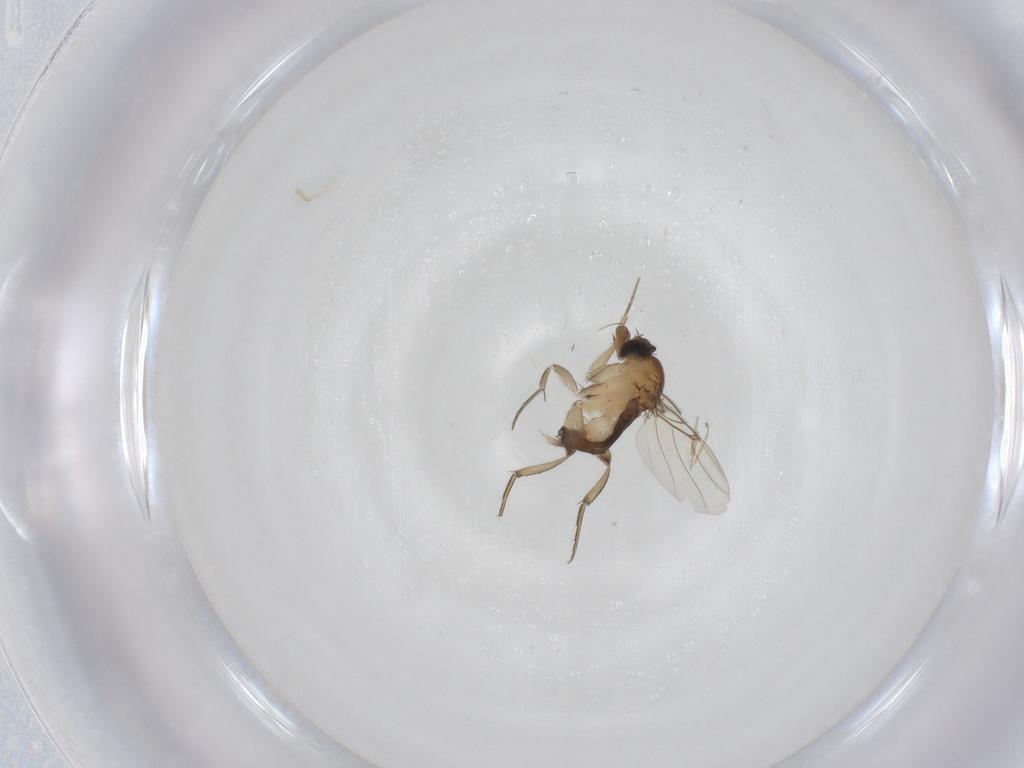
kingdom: Animalia
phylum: Arthropoda
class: Insecta
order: Diptera
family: Phoridae
